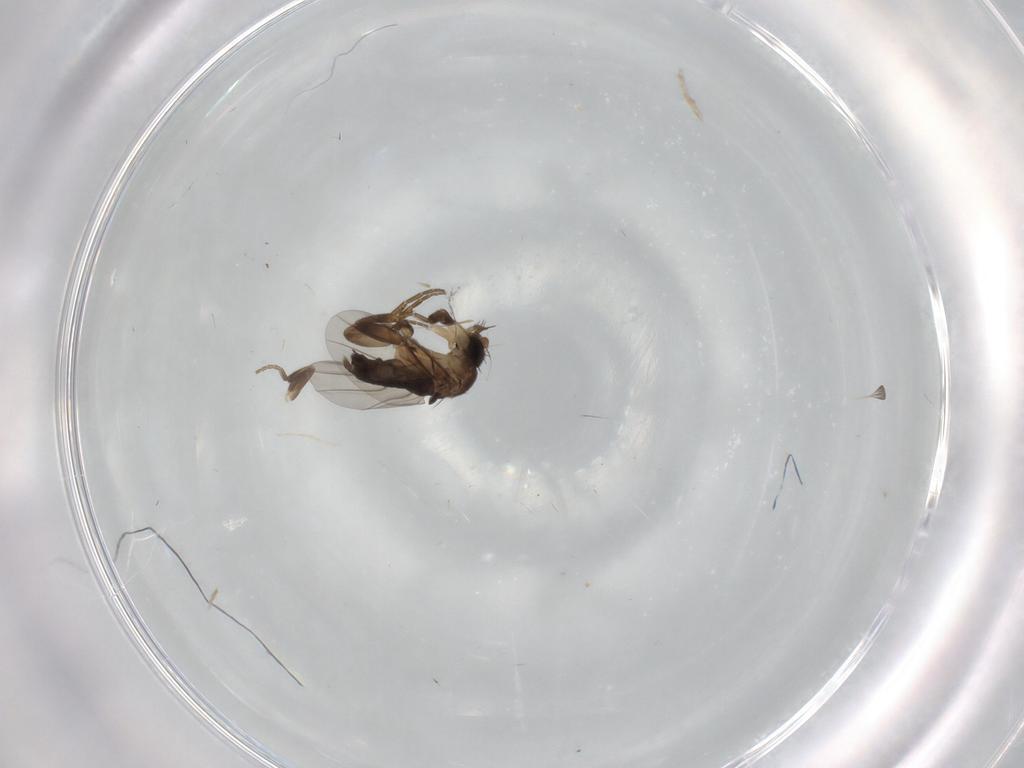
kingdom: Animalia
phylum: Arthropoda
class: Insecta
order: Diptera
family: Phoridae
